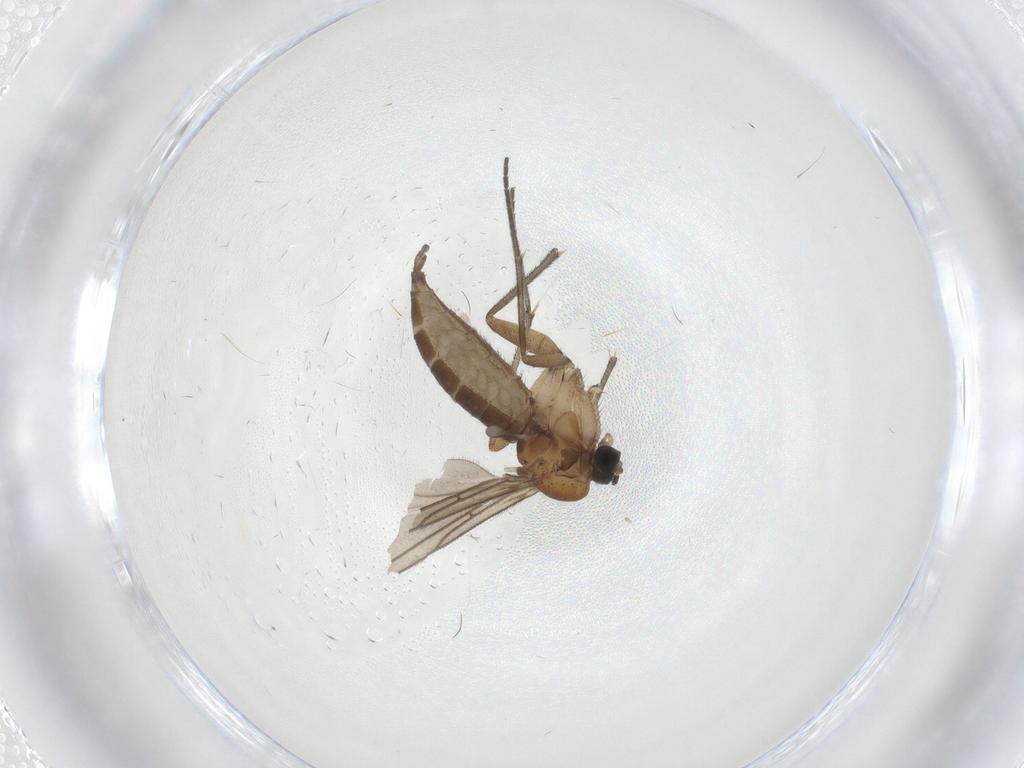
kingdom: Animalia
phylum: Arthropoda
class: Insecta
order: Diptera
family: Sciaridae
